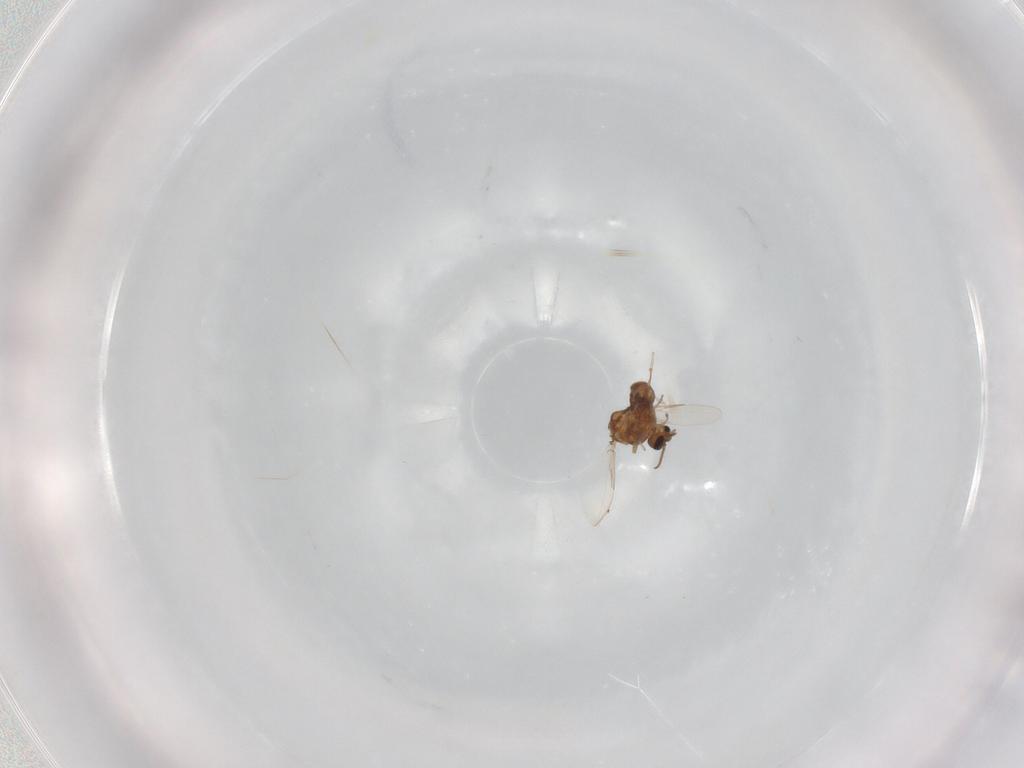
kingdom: Animalia
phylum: Arthropoda
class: Insecta
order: Diptera
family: Ceratopogonidae
